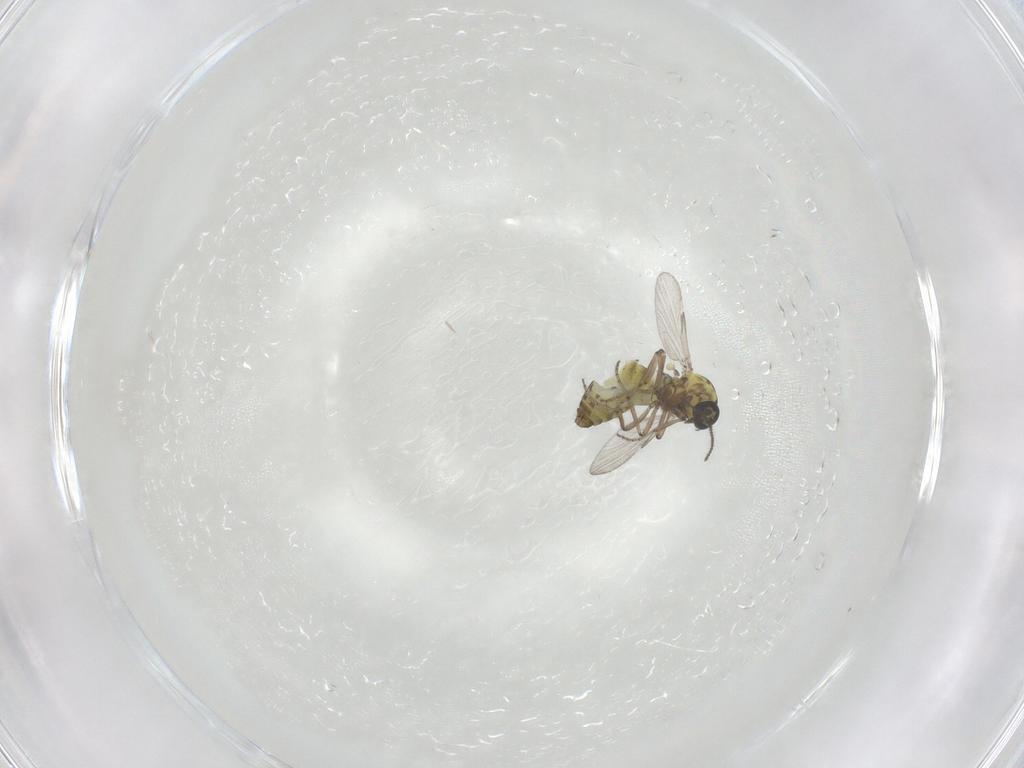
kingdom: Animalia
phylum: Arthropoda
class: Insecta
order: Diptera
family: Ceratopogonidae
